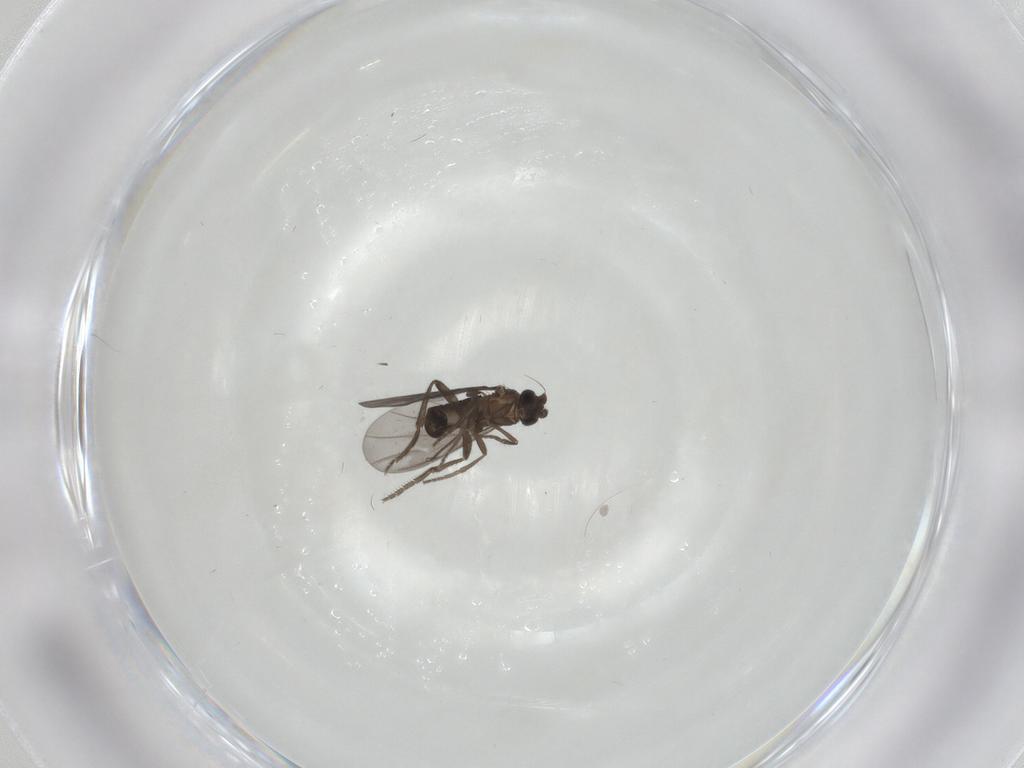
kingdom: Animalia
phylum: Arthropoda
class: Insecta
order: Diptera
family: Phoridae
